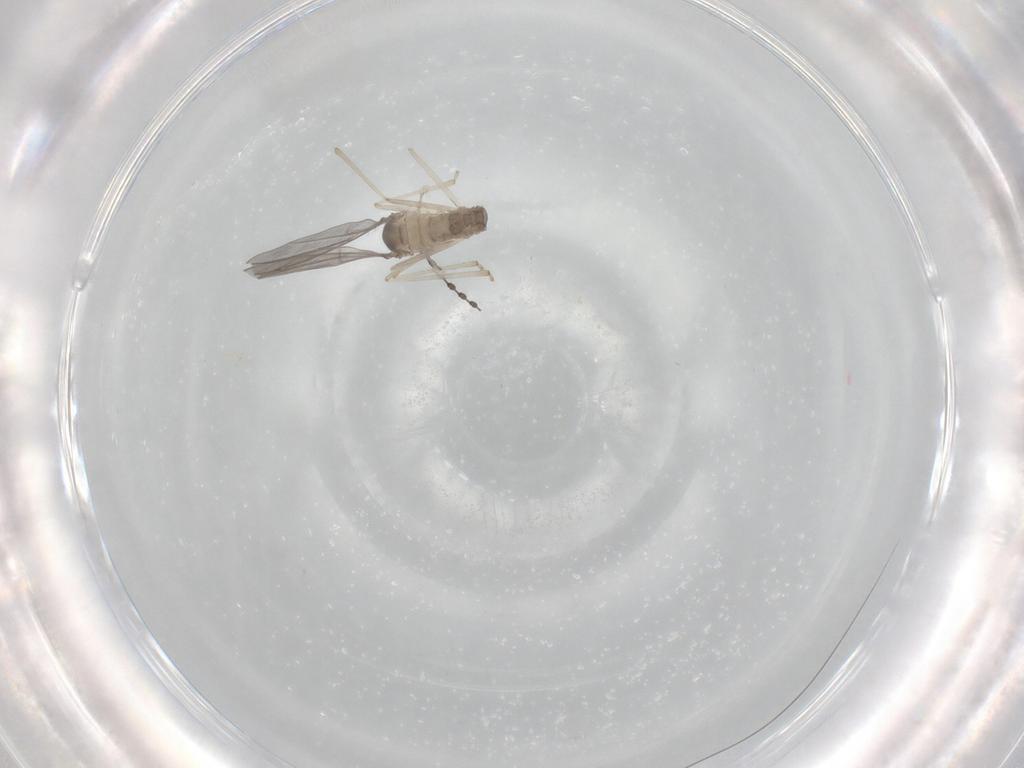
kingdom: Animalia
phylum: Arthropoda
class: Insecta
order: Diptera
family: Cecidomyiidae
